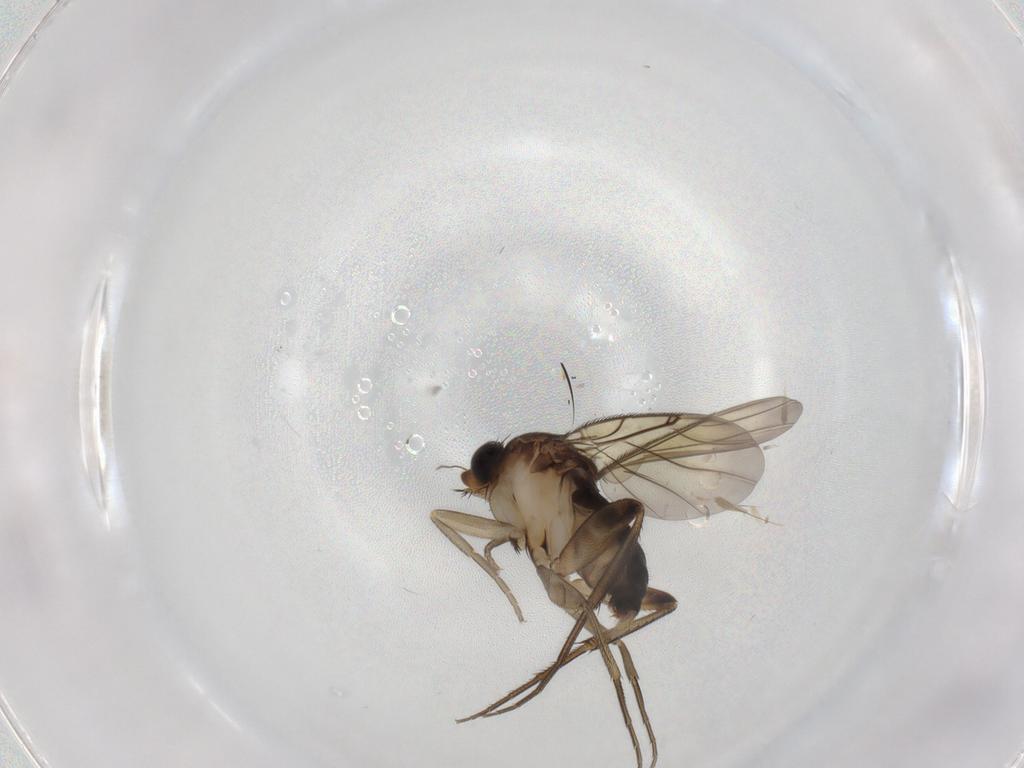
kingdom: Animalia
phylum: Arthropoda
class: Insecta
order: Diptera
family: Phoridae
